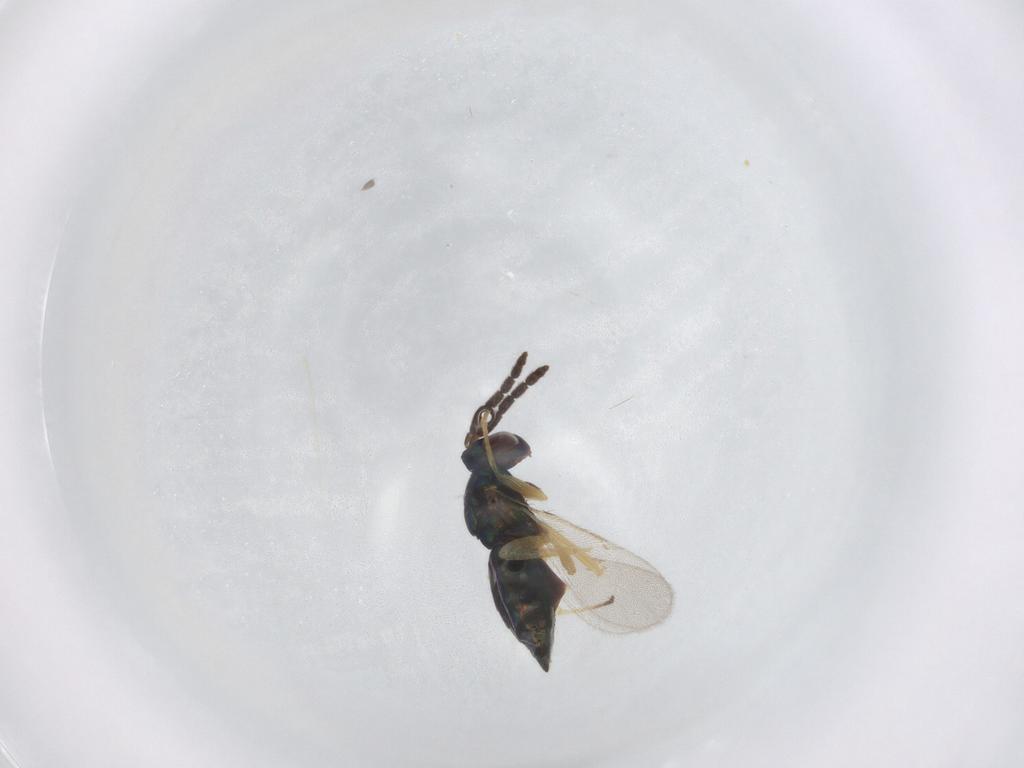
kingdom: Animalia
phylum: Arthropoda
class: Insecta
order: Hymenoptera
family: Eulophidae
